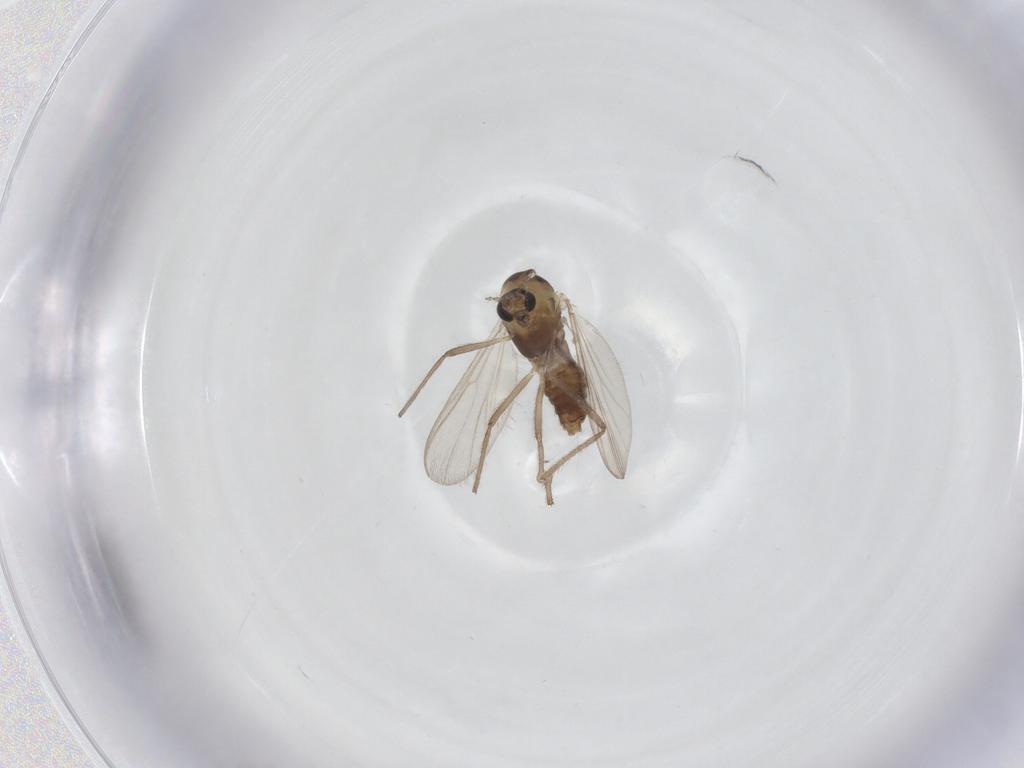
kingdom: Animalia
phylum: Arthropoda
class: Insecta
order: Diptera
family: Chironomidae
